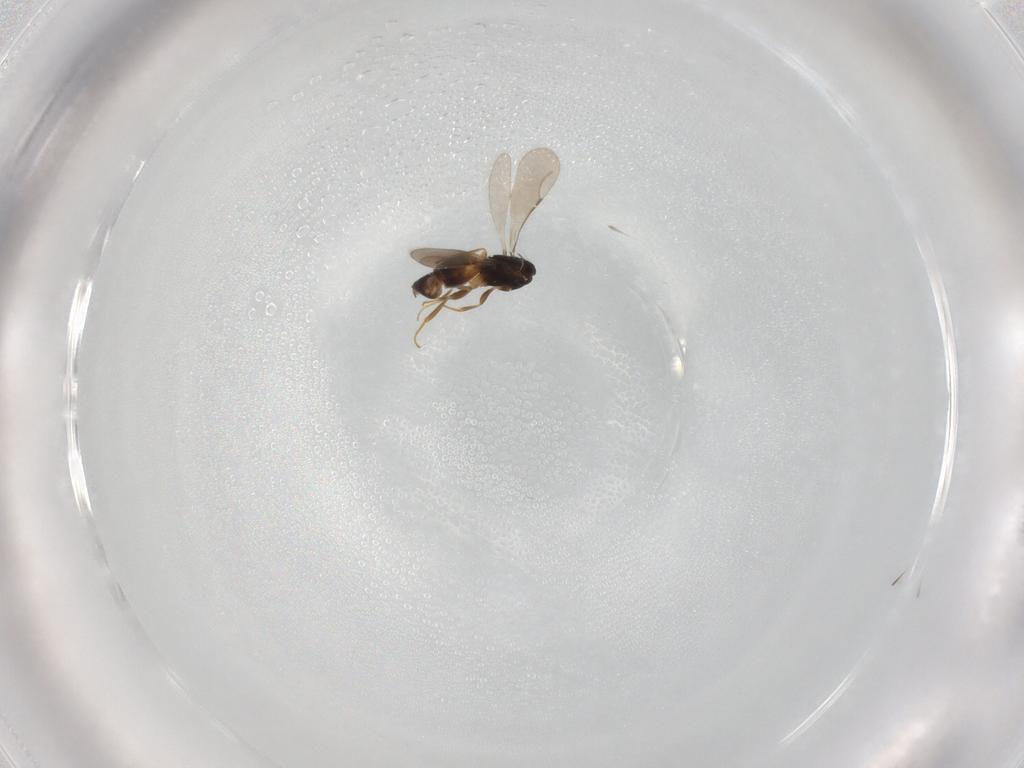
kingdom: Animalia
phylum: Arthropoda
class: Insecta
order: Hymenoptera
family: Ceraphronidae
